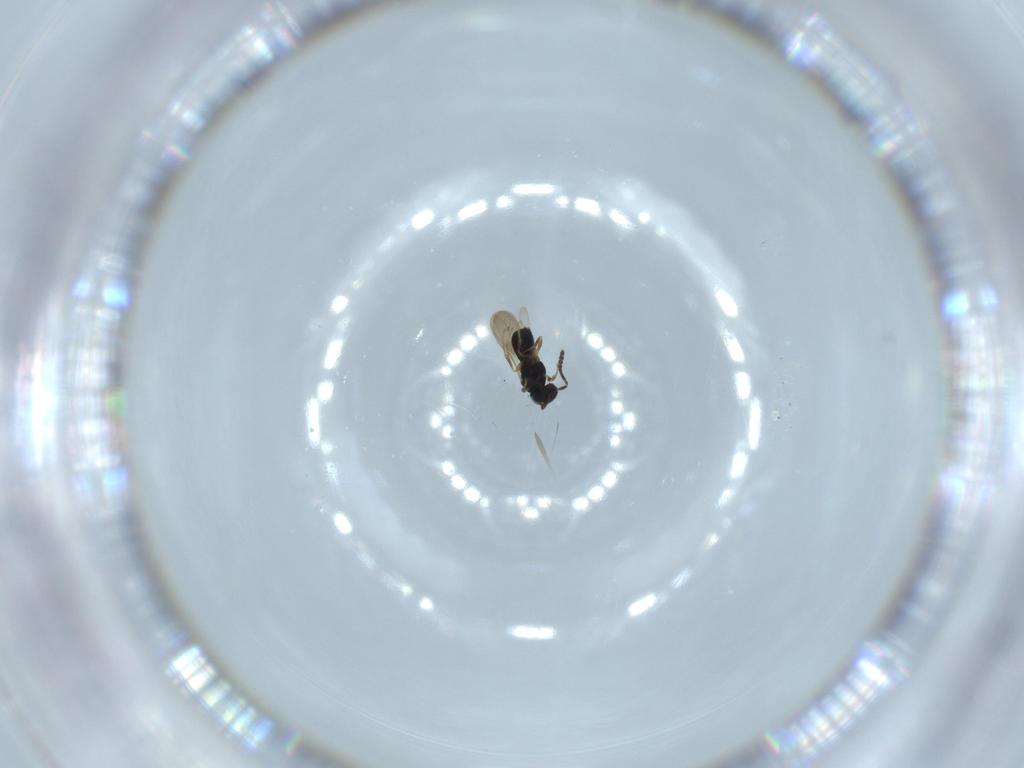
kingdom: Animalia
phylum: Arthropoda
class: Insecta
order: Hymenoptera
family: Scelionidae
